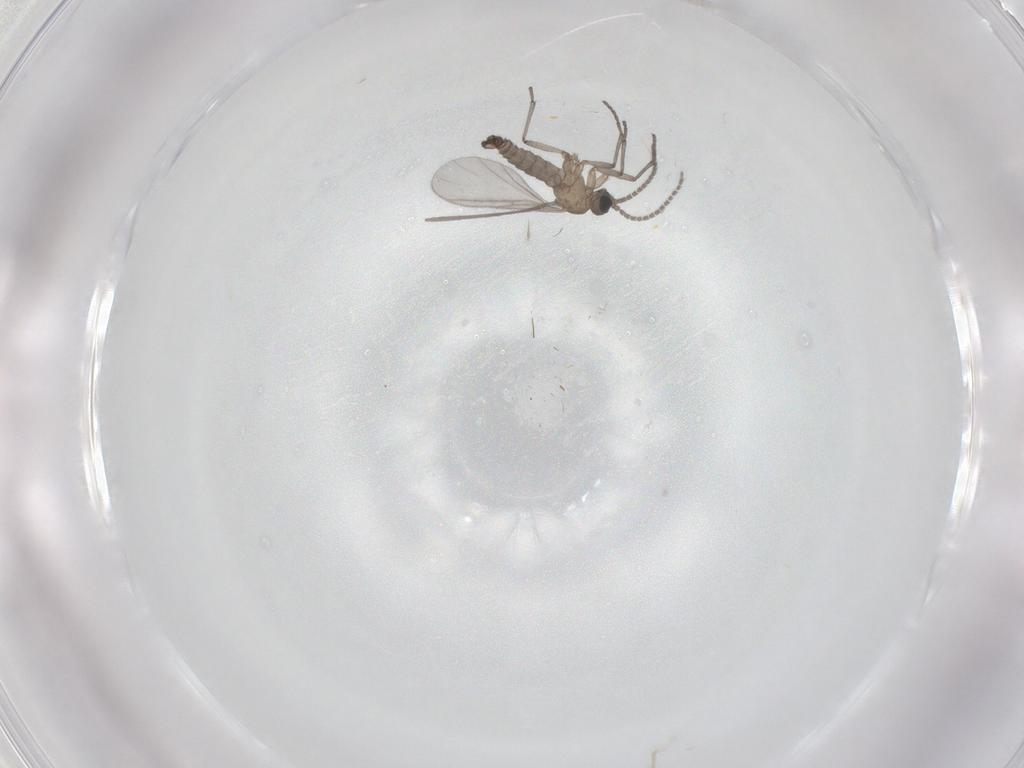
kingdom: Animalia
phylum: Arthropoda
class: Insecta
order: Diptera
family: Sciaridae
